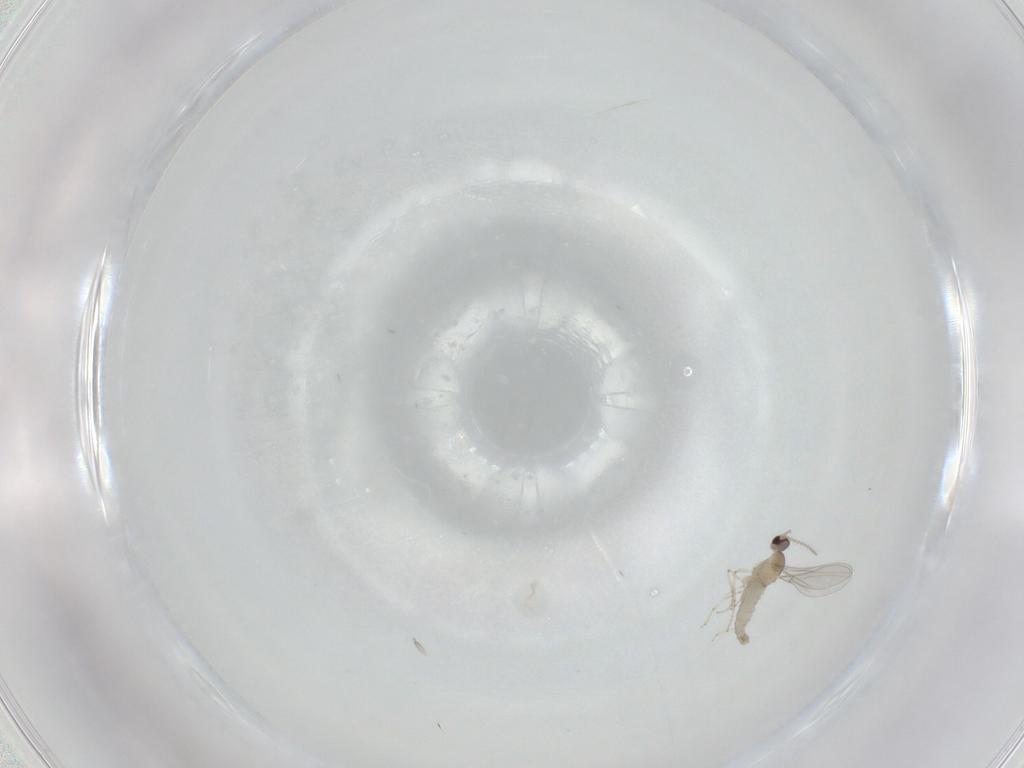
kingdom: Animalia
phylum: Arthropoda
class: Insecta
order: Diptera
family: Cecidomyiidae
